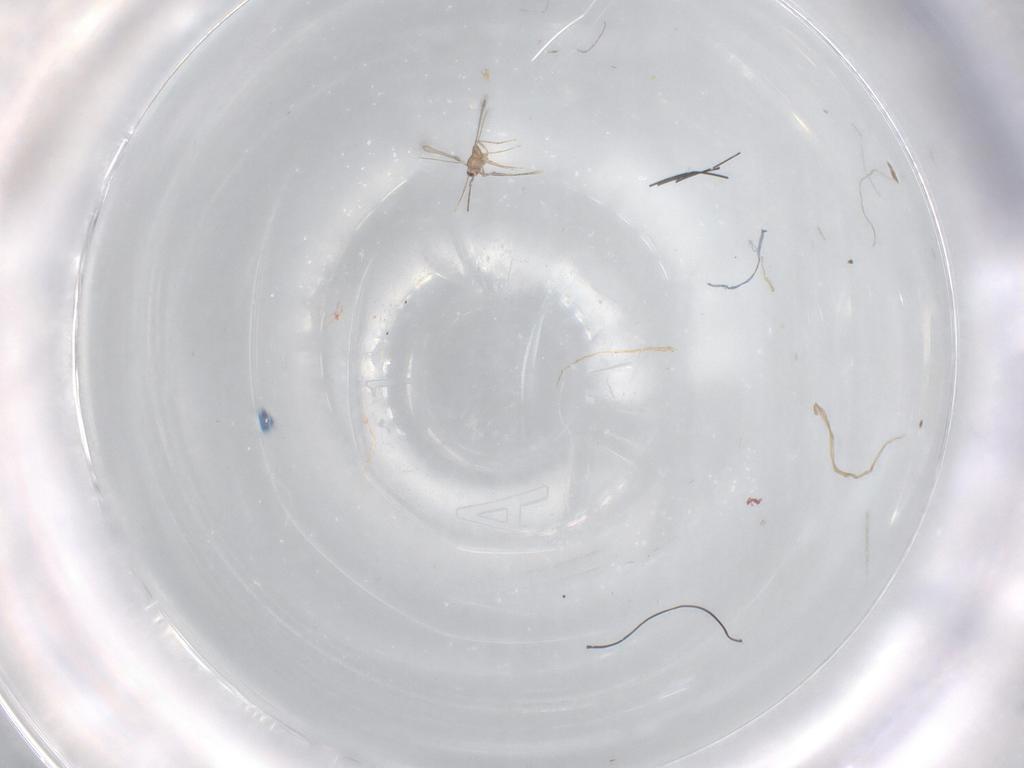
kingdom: Animalia
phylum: Arthropoda
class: Insecta
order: Hymenoptera
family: Mymaridae
